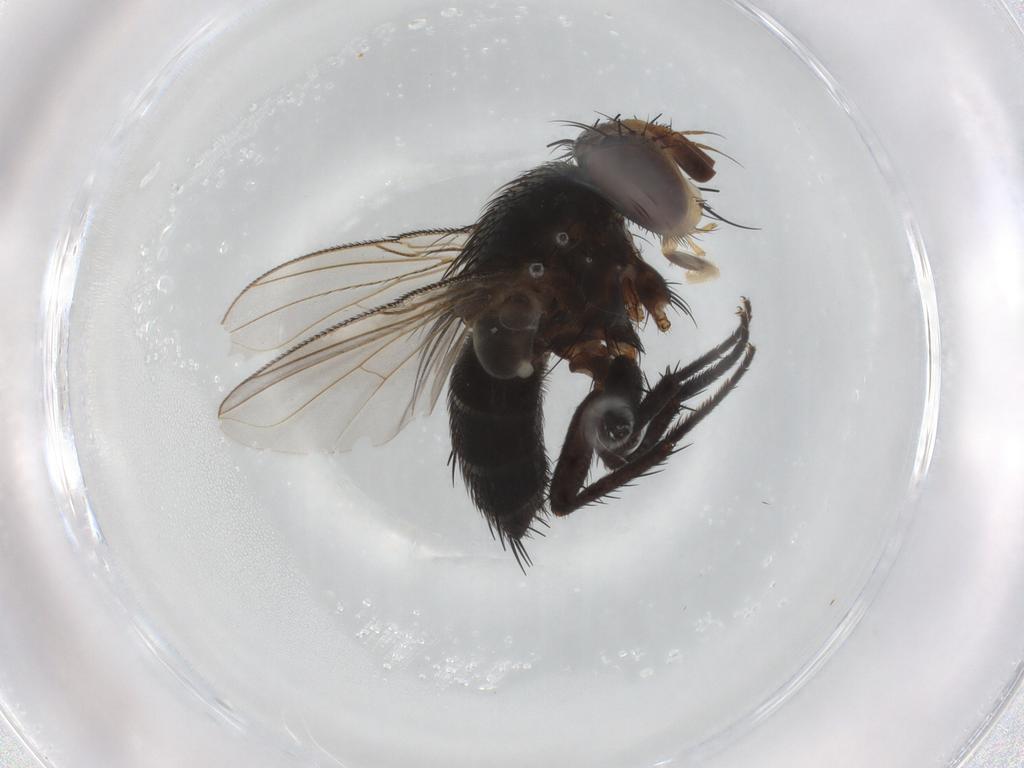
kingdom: Animalia
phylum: Arthropoda
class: Insecta
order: Diptera
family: Tachinidae
